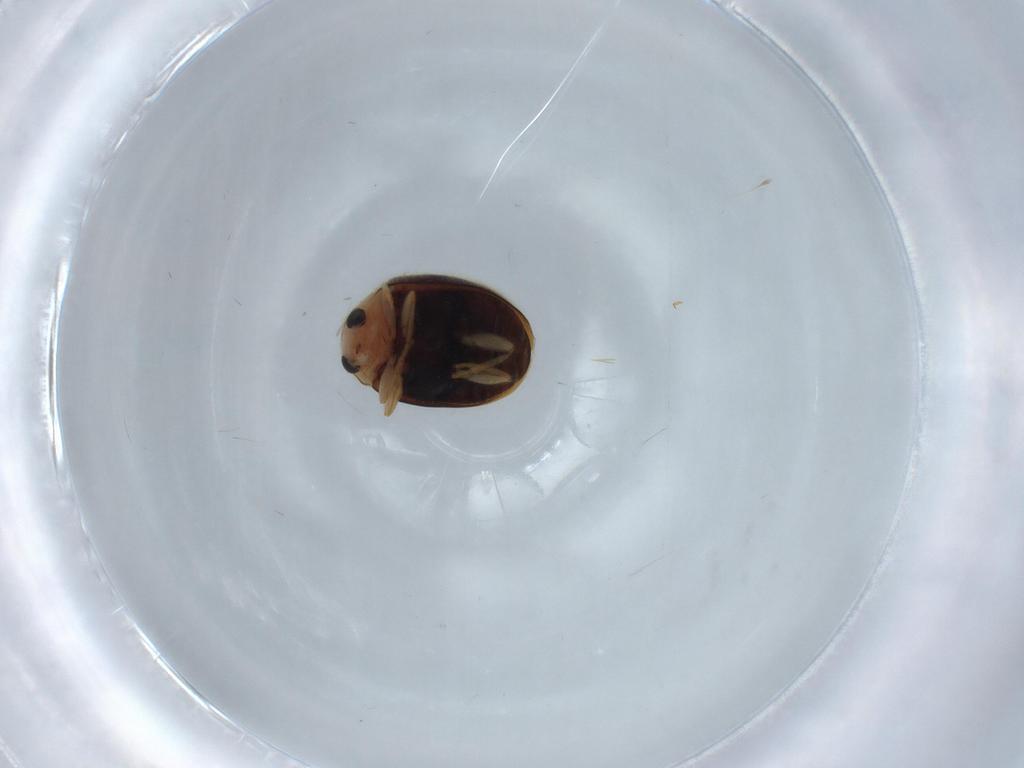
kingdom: Animalia
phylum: Arthropoda
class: Insecta
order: Coleoptera
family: Coccinellidae
